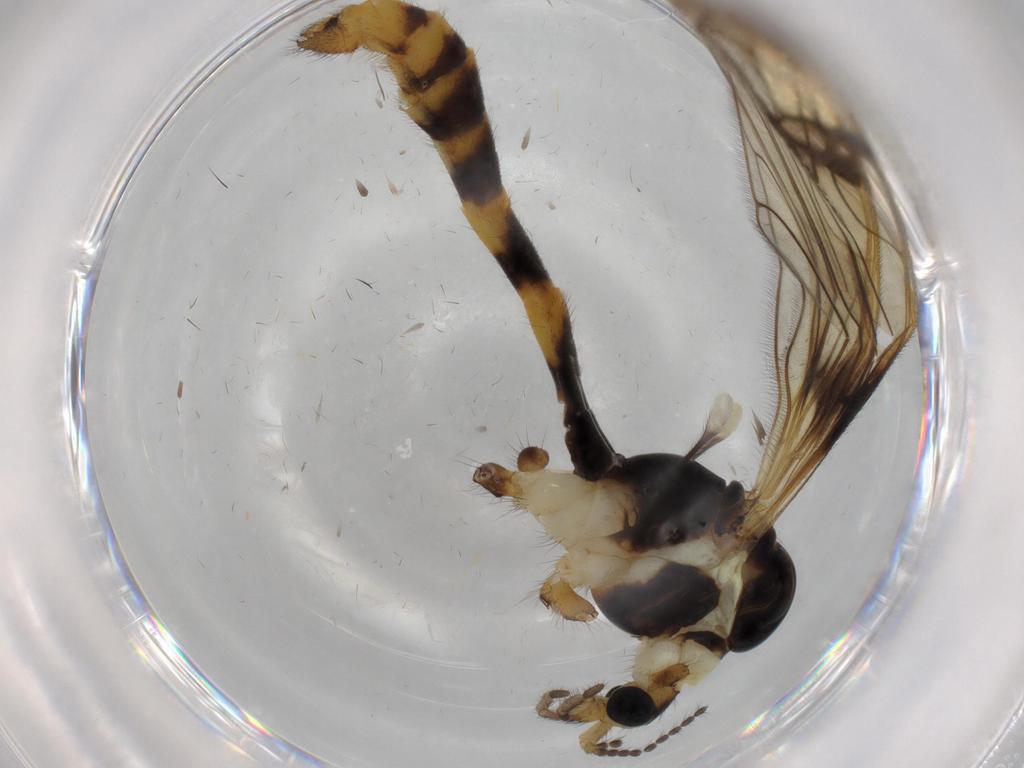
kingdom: Animalia
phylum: Arthropoda
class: Insecta
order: Diptera
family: Limoniidae
